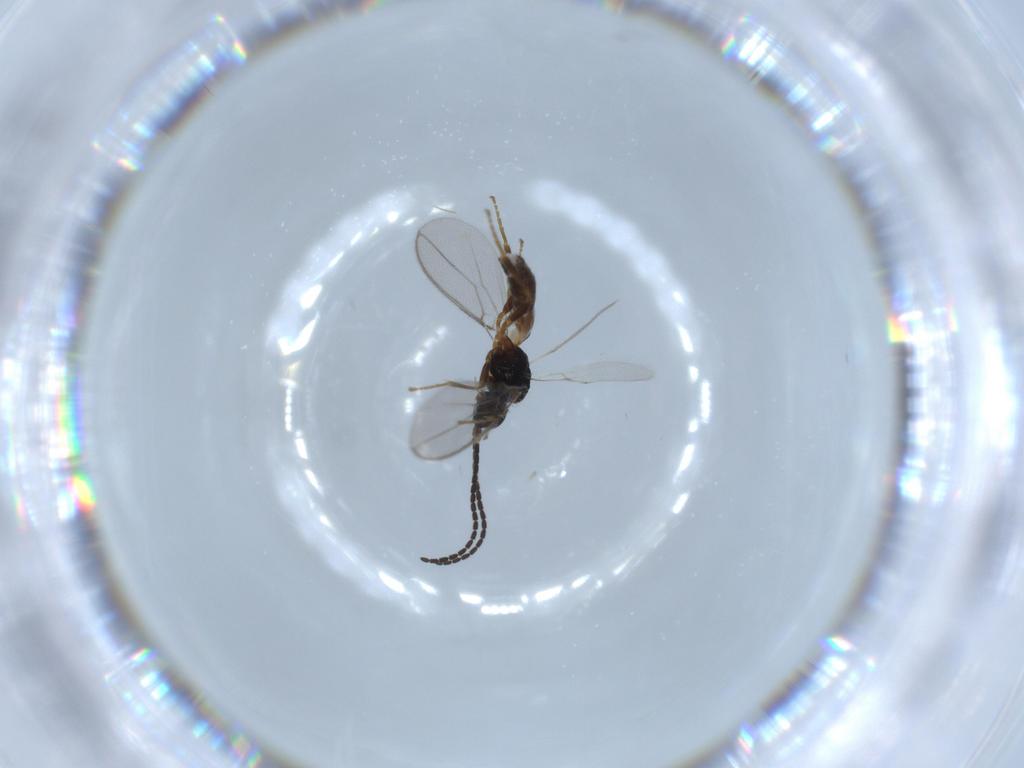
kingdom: Animalia
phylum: Arthropoda
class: Insecta
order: Hymenoptera
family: Braconidae
